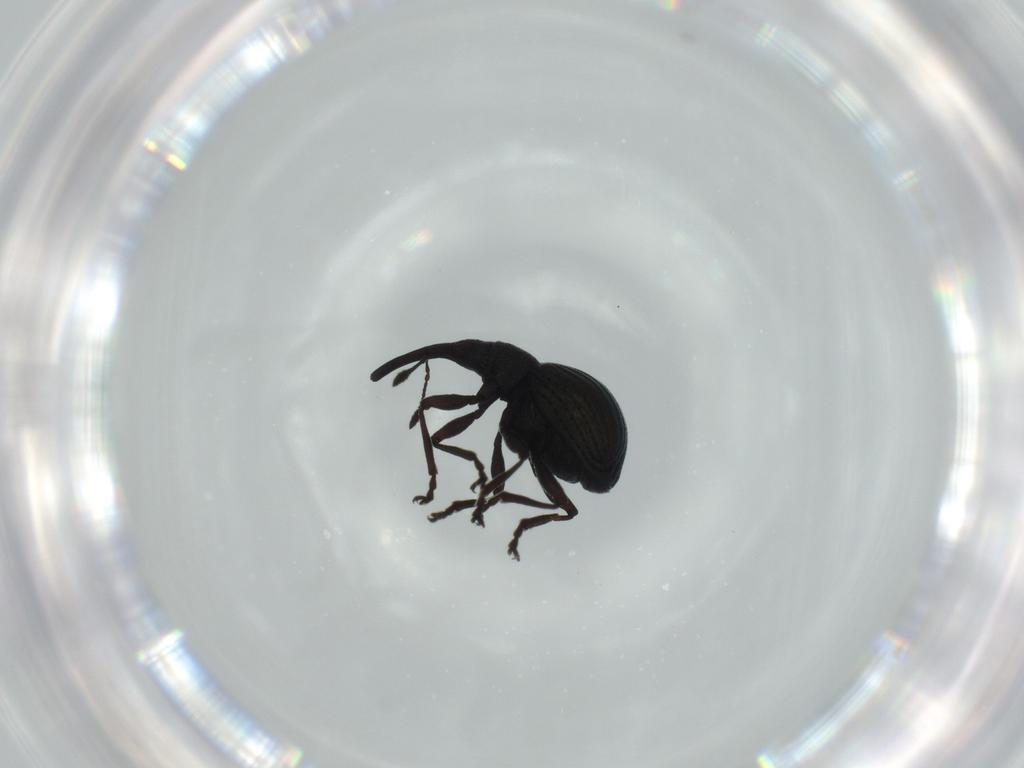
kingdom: Animalia
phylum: Arthropoda
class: Insecta
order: Coleoptera
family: Brentidae
